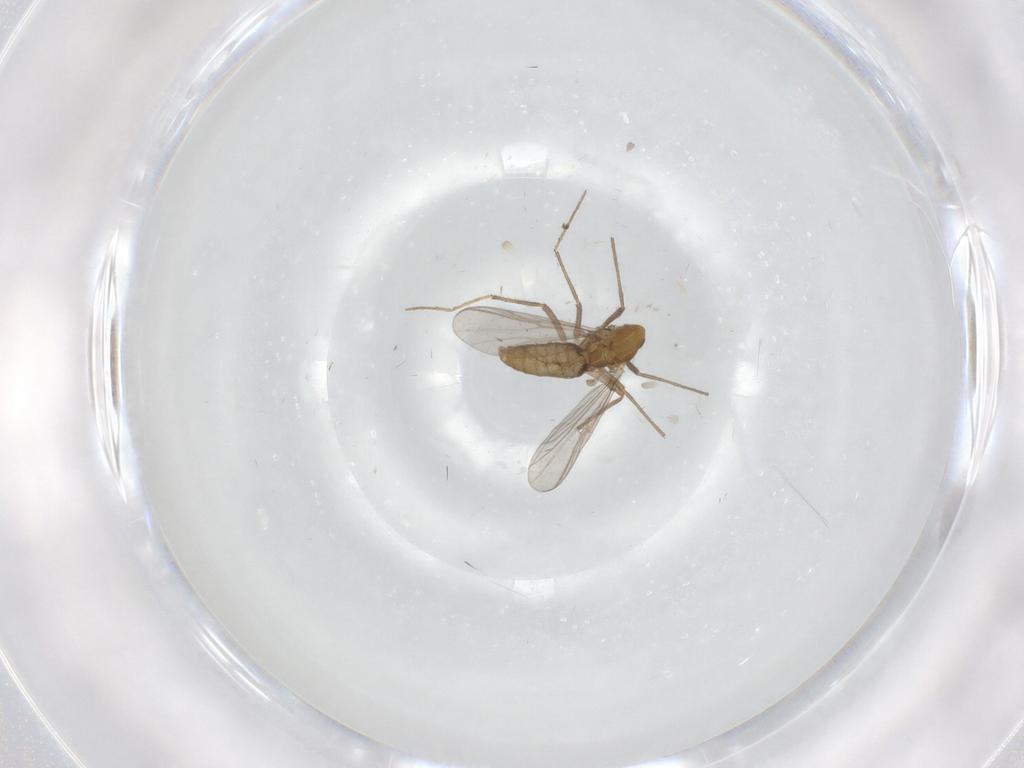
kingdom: Animalia
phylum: Arthropoda
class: Insecta
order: Diptera
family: Chironomidae
